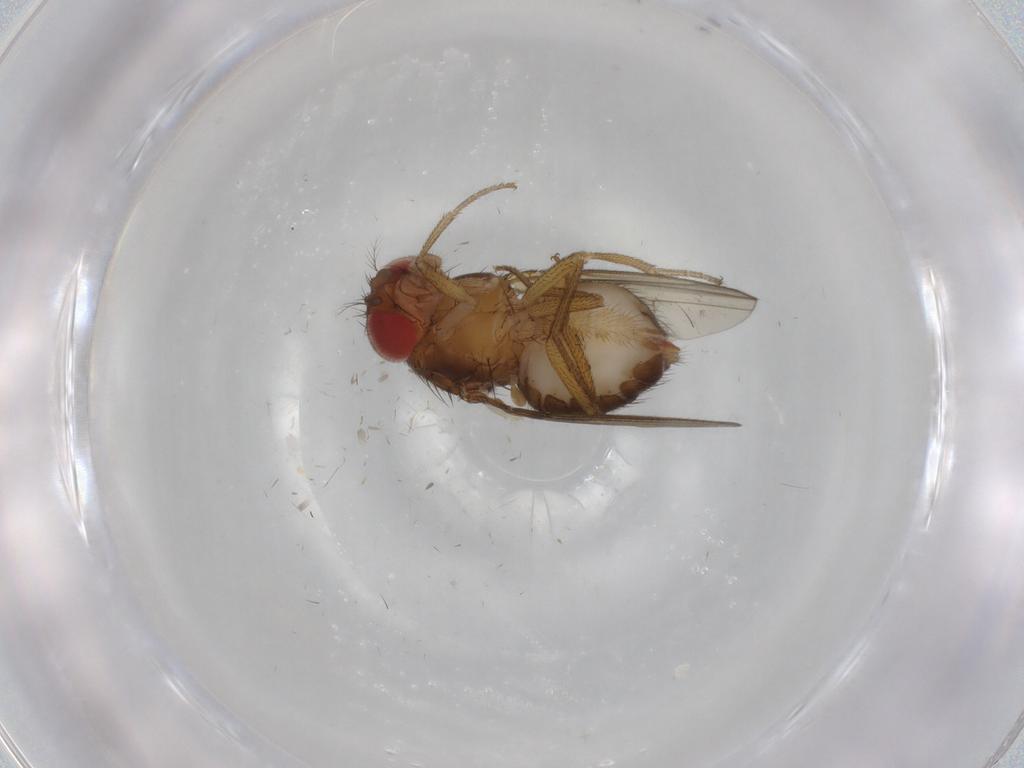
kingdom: Animalia
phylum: Arthropoda
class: Insecta
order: Diptera
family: Drosophilidae
